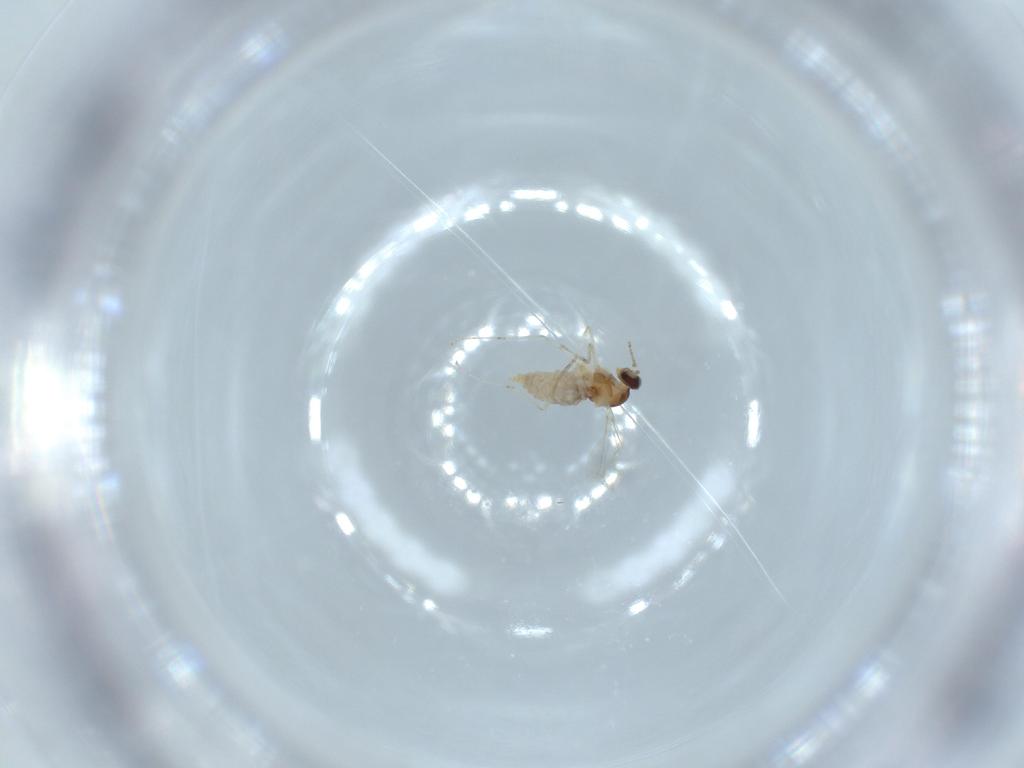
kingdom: Animalia
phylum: Arthropoda
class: Insecta
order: Diptera
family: Cecidomyiidae
